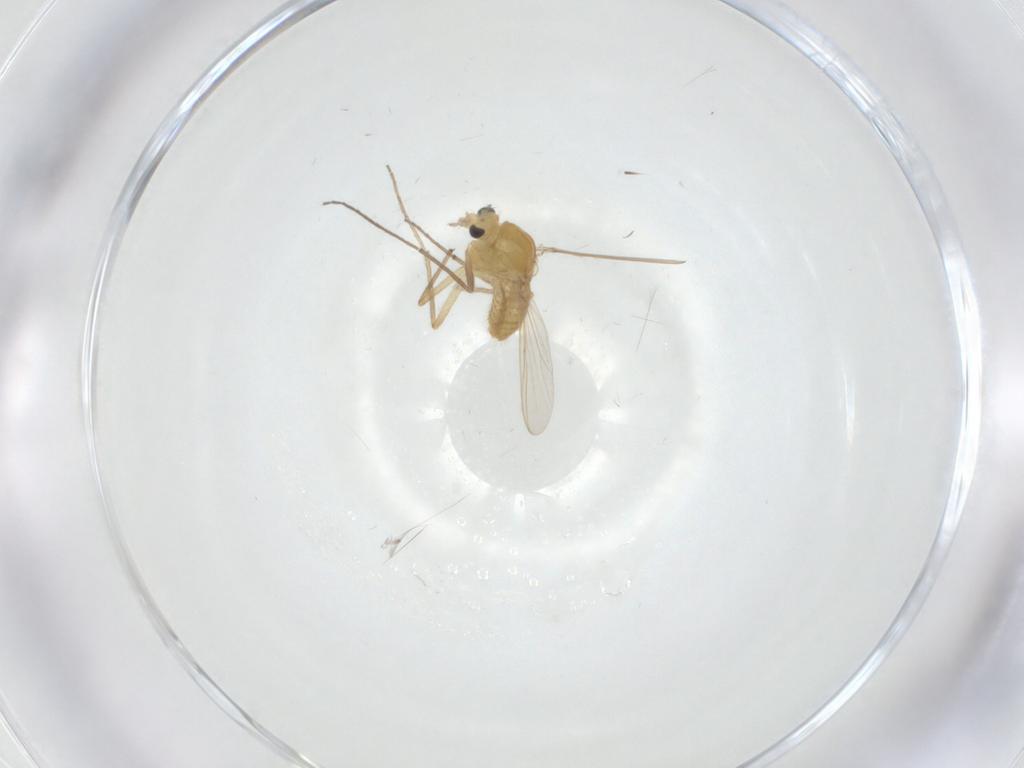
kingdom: Animalia
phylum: Arthropoda
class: Insecta
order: Diptera
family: Chironomidae
